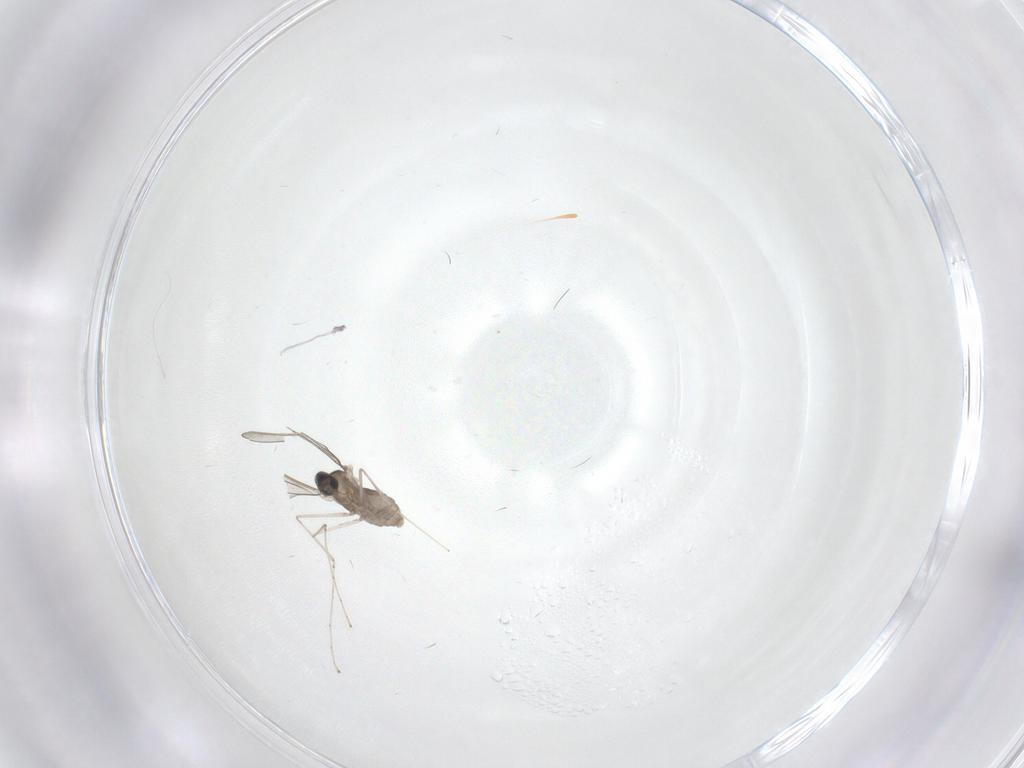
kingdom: Animalia
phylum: Arthropoda
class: Insecta
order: Diptera
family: Cecidomyiidae
